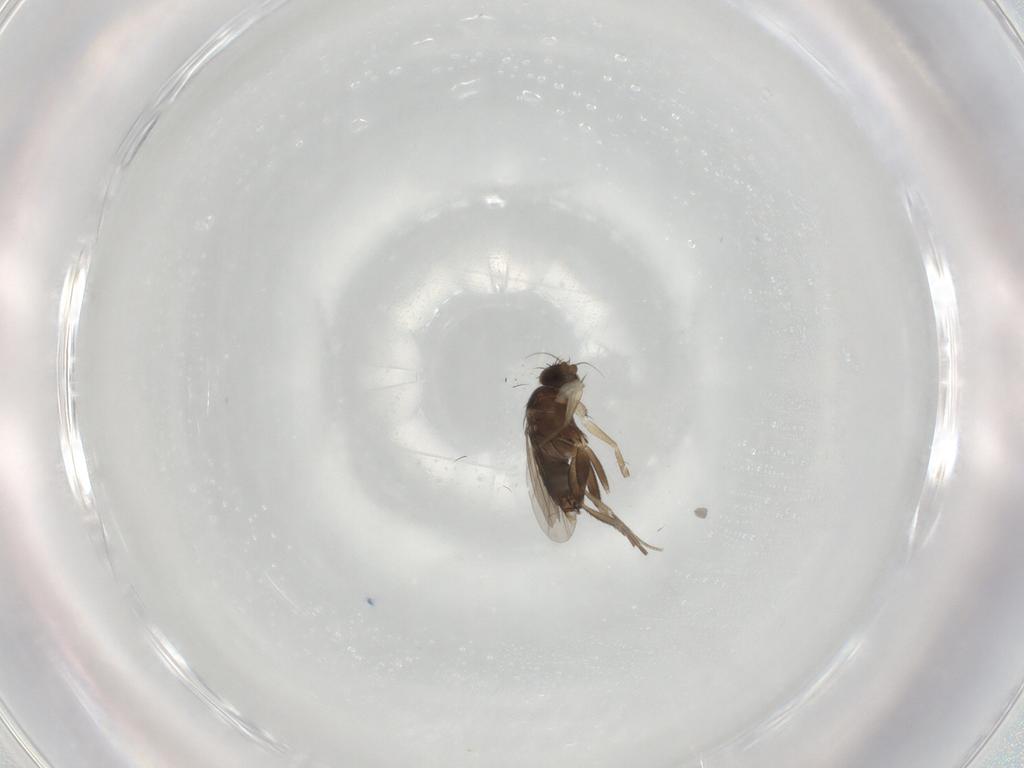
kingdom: Animalia
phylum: Arthropoda
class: Insecta
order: Diptera
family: Phoridae
